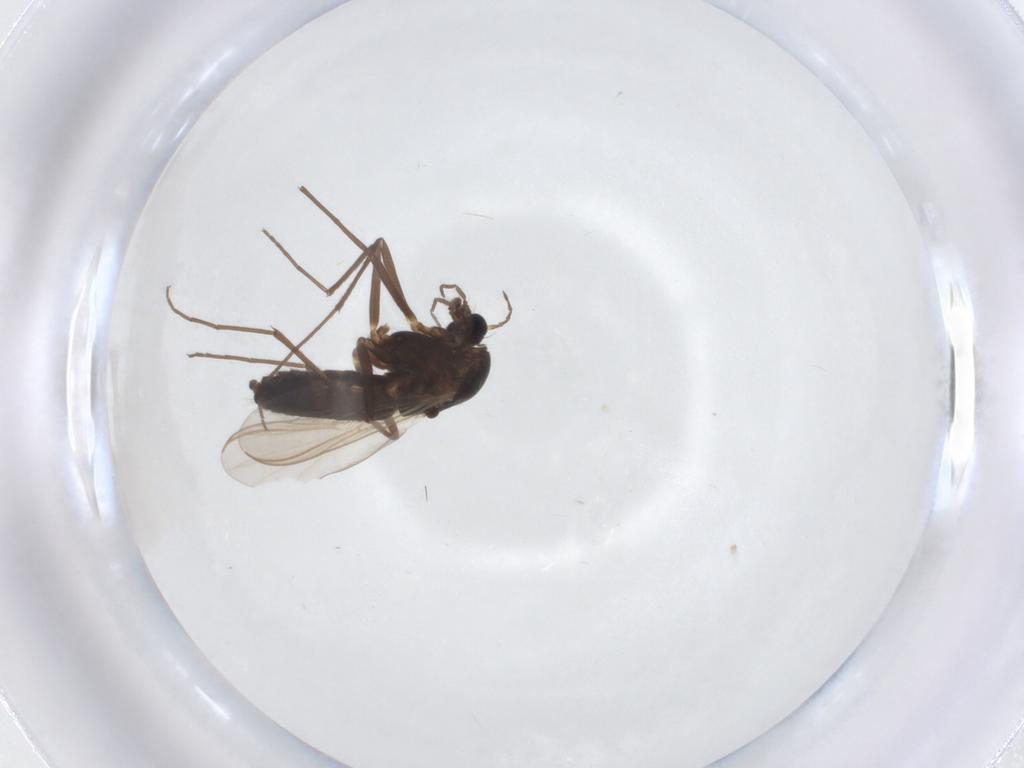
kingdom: Animalia
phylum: Arthropoda
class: Insecta
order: Diptera
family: Chironomidae
